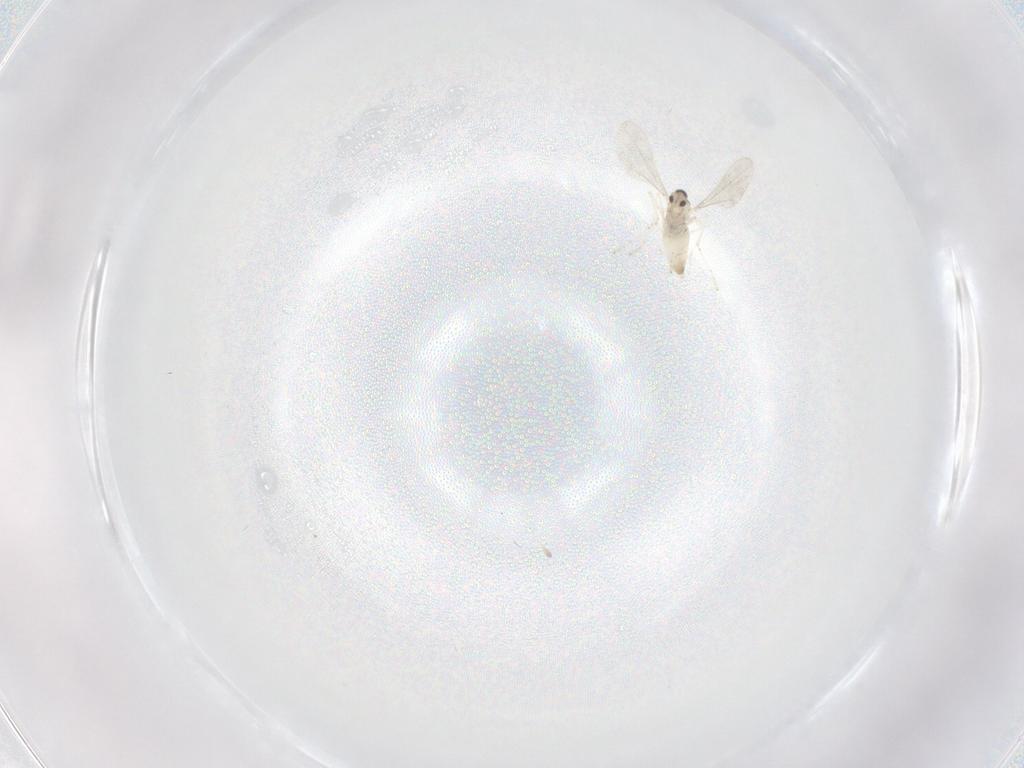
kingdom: Animalia
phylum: Arthropoda
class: Insecta
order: Diptera
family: Cecidomyiidae
